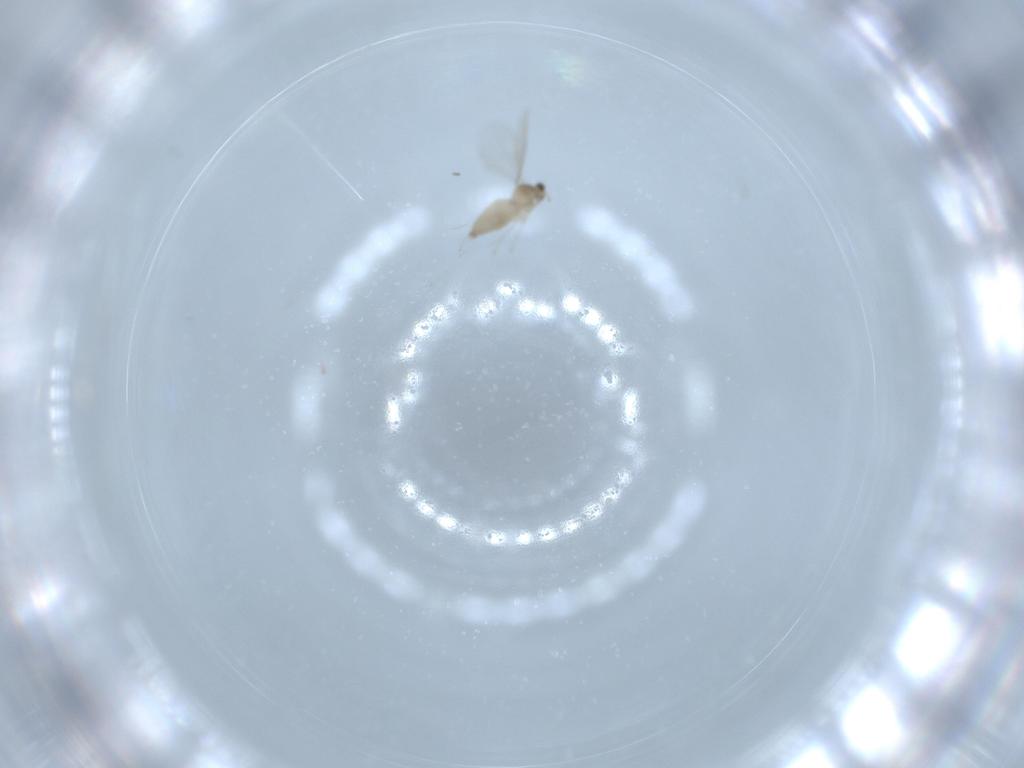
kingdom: Animalia
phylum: Arthropoda
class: Insecta
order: Diptera
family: Cecidomyiidae
